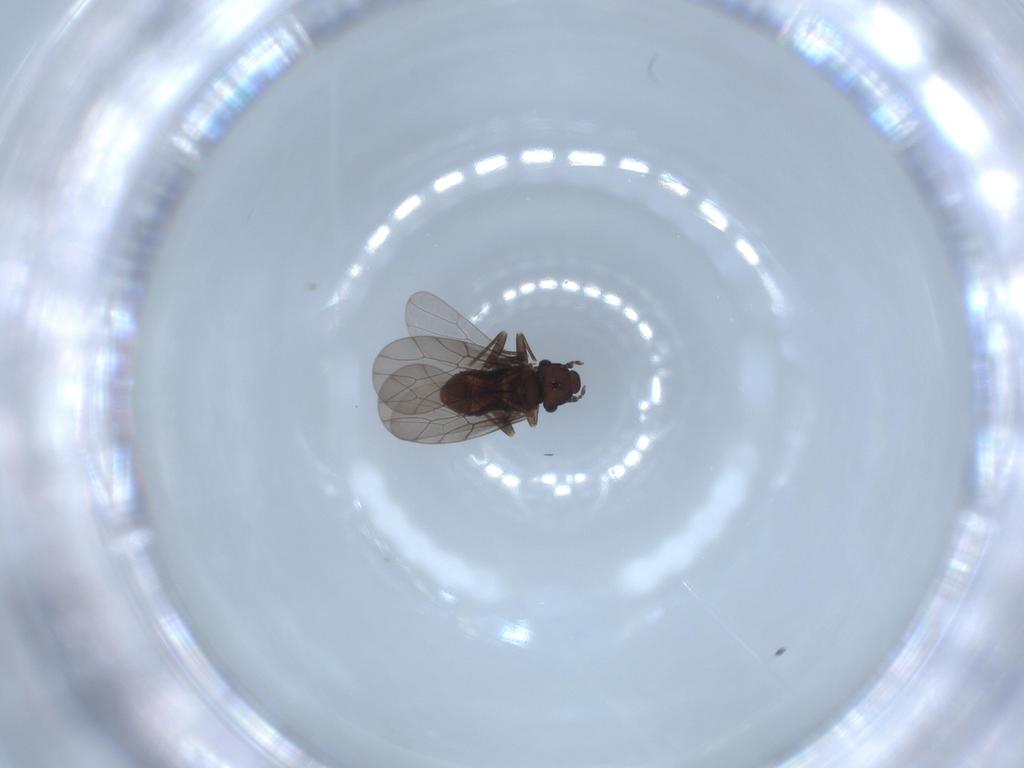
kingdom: Animalia
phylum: Arthropoda
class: Insecta
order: Psocodea
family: Lepidopsocidae
